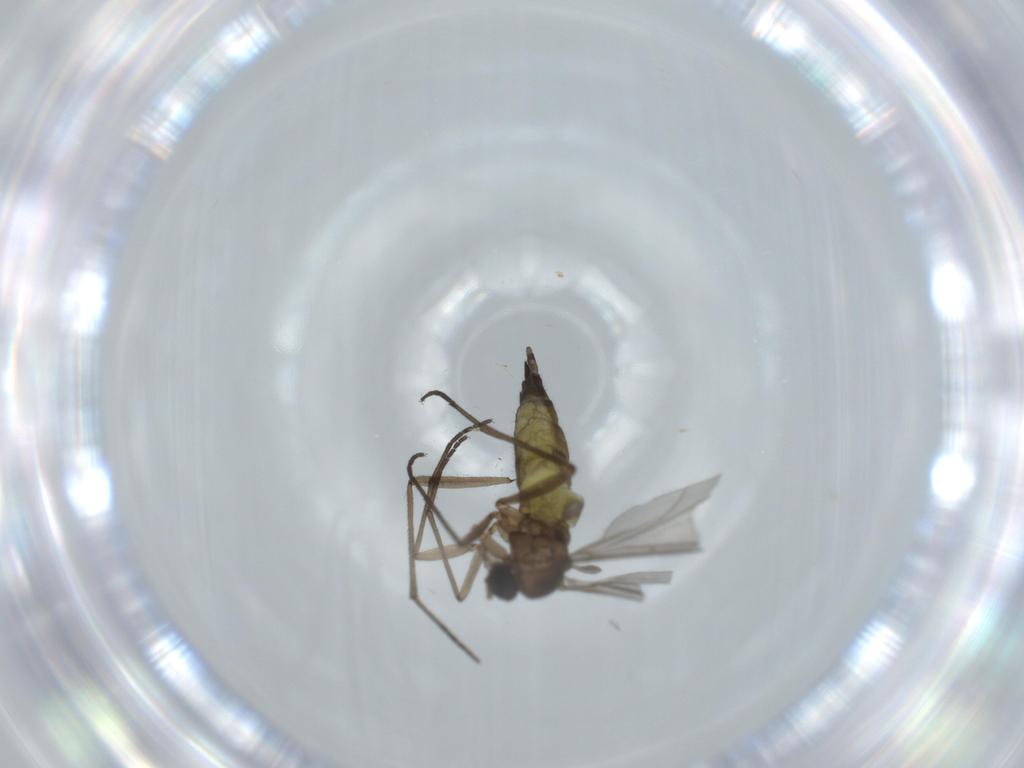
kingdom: Animalia
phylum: Arthropoda
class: Insecta
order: Diptera
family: Sciaridae
